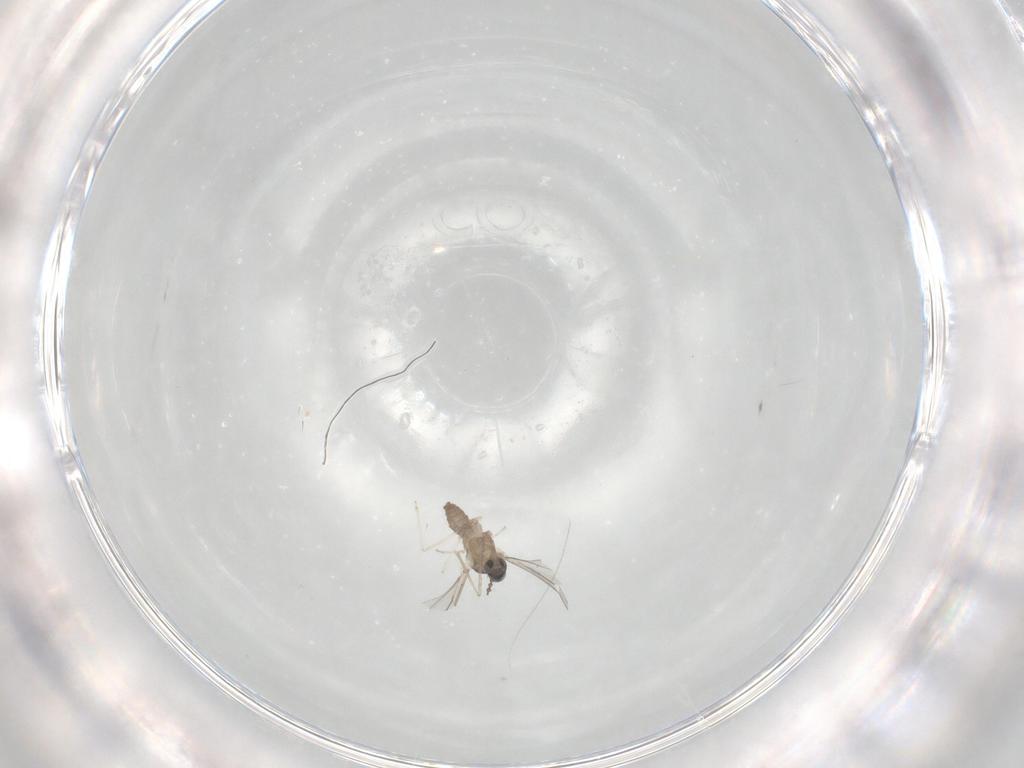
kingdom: Animalia
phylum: Arthropoda
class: Insecta
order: Diptera
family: Cecidomyiidae
